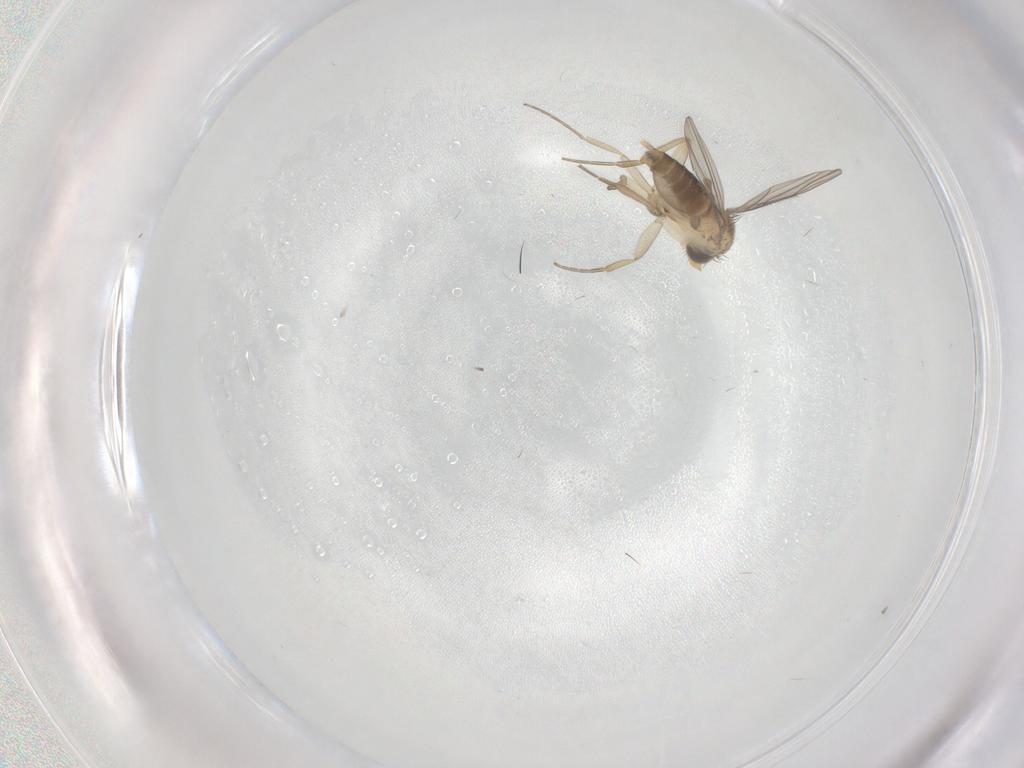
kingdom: Animalia
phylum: Arthropoda
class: Insecta
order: Diptera
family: Phoridae
